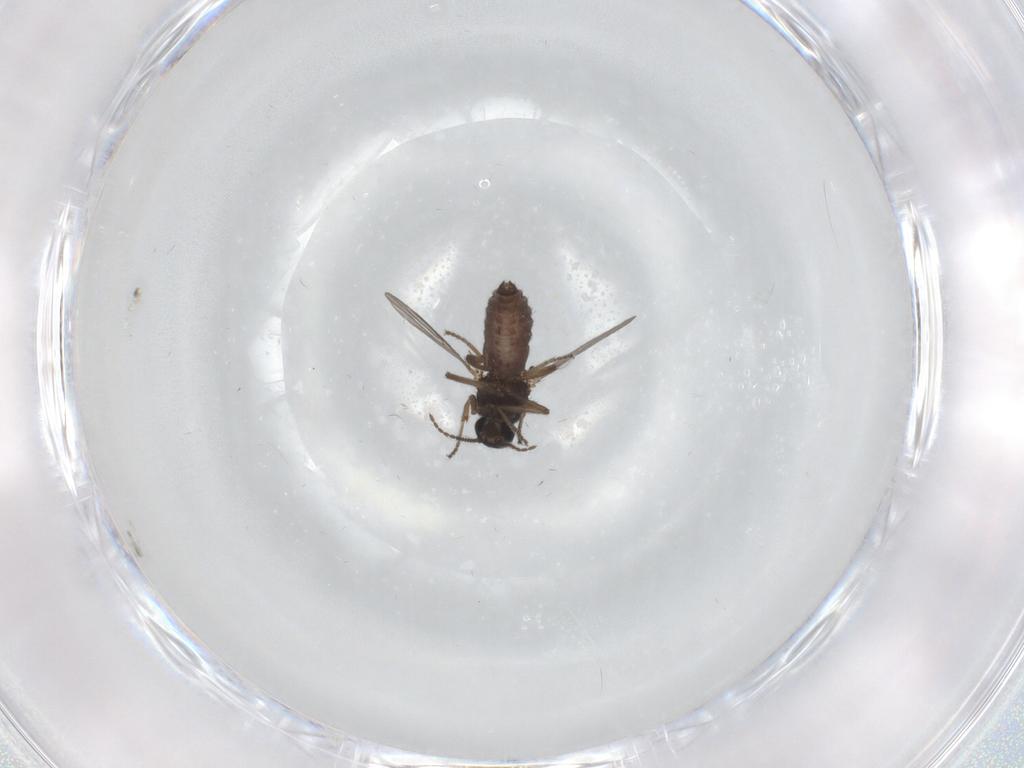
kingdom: Animalia
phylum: Arthropoda
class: Insecta
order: Diptera
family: Ceratopogonidae
